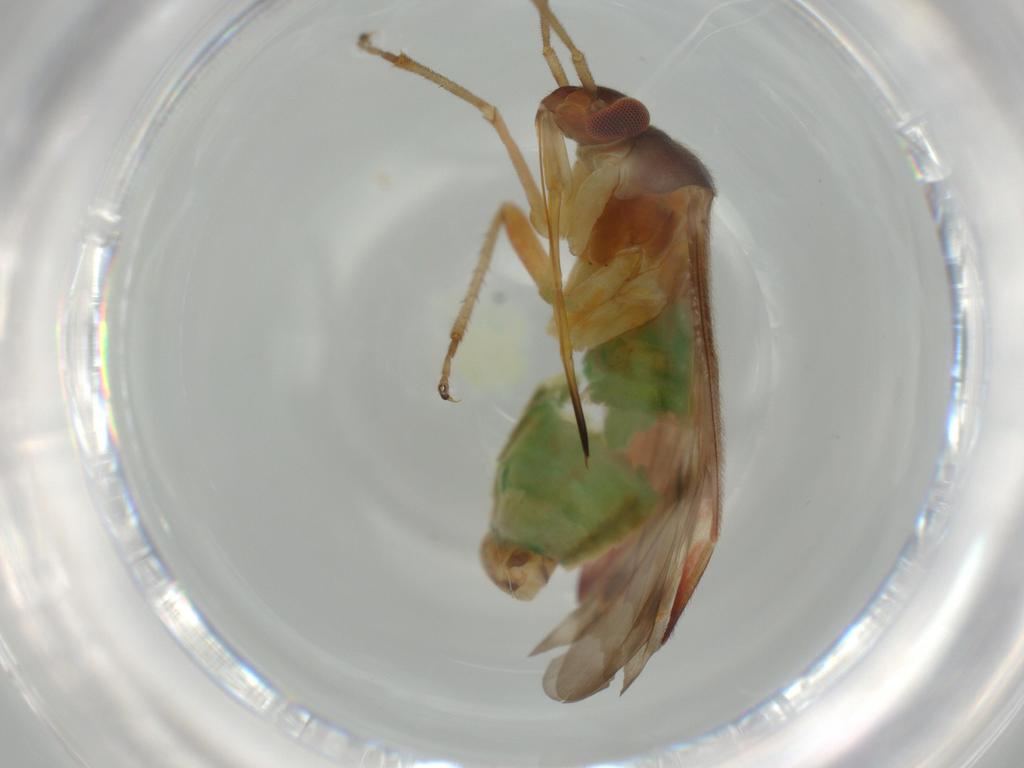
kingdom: Animalia
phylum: Arthropoda
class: Insecta
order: Hemiptera
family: Miridae
